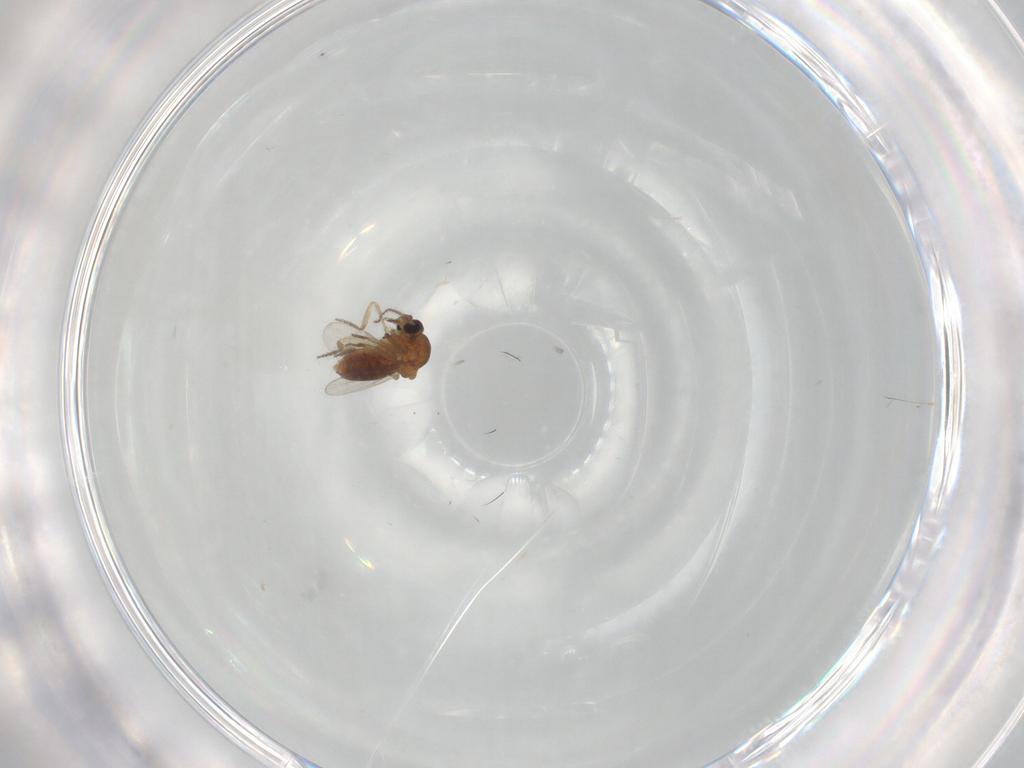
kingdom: Animalia
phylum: Arthropoda
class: Insecta
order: Diptera
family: Ceratopogonidae
